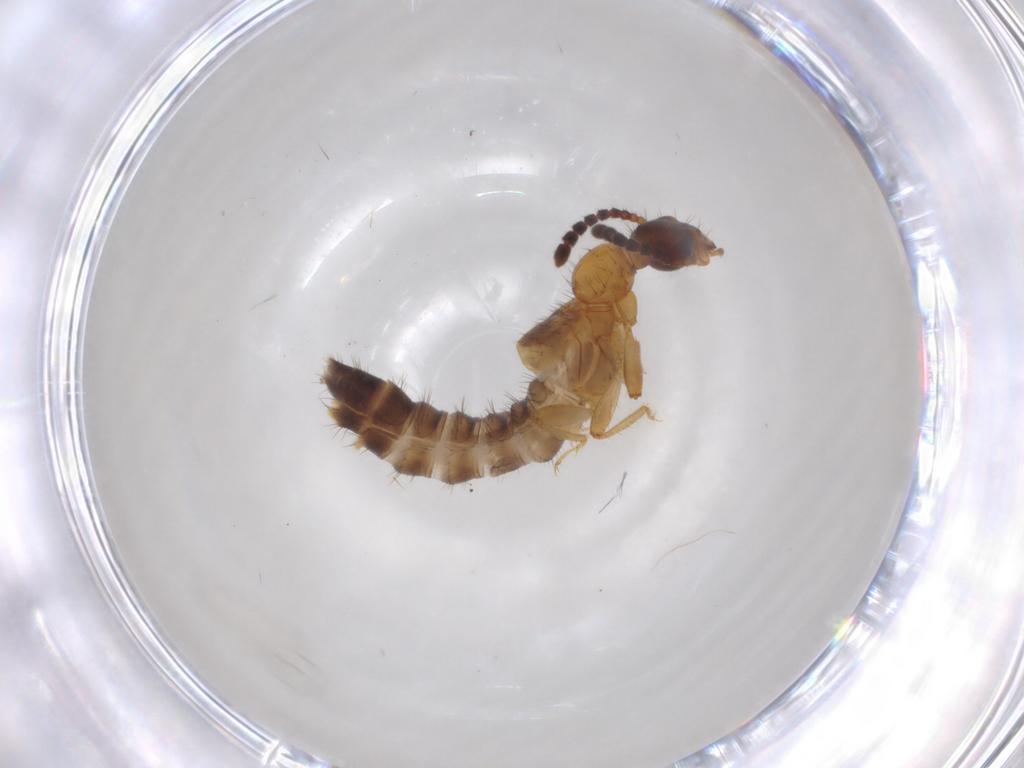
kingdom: Animalia
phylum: Arthropoda
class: Insecta
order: Coleoptera
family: Staphylinidae
